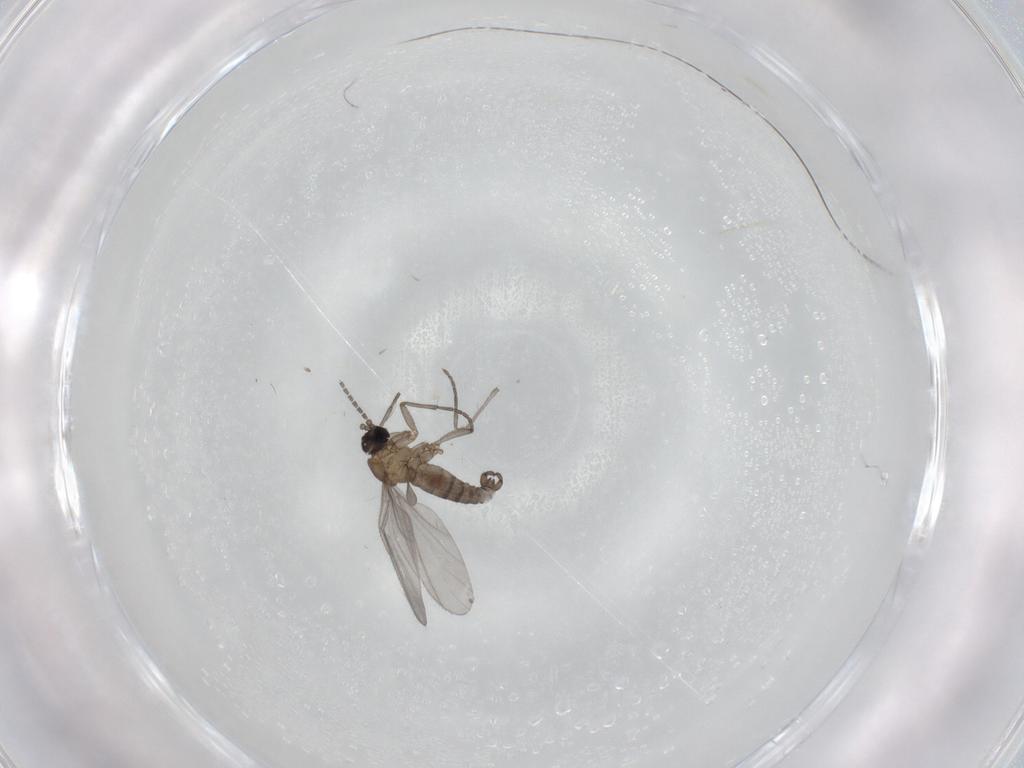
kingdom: Animalia
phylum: Arthropoda
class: Insecta
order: Diptera
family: Sciaridae
